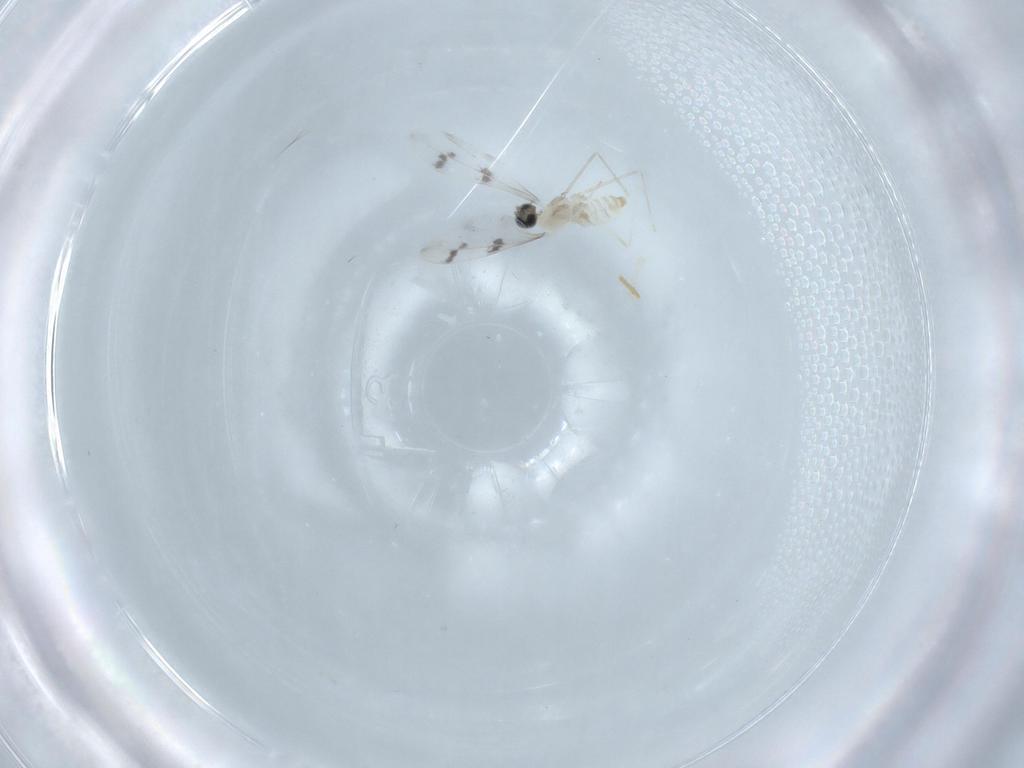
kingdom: Animalia
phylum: Arthropoda
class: Insecta
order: Diptera
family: Cecidomyiidae
